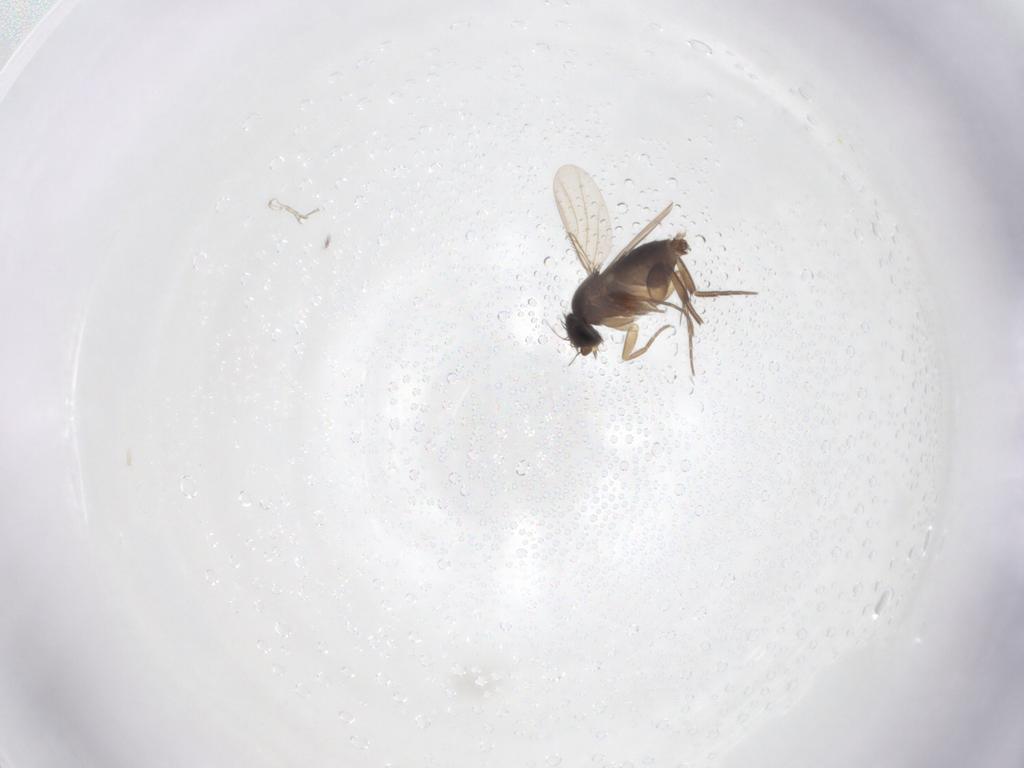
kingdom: Animalia
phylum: Arthropoda
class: Insecta
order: Diptera
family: Phoridae
